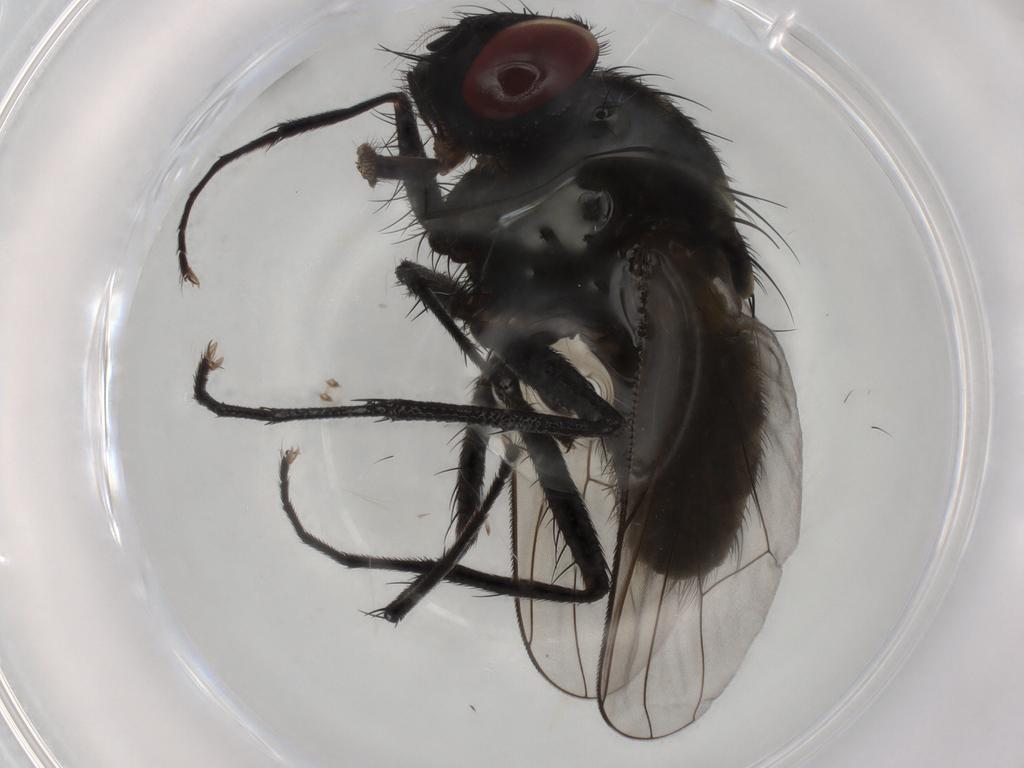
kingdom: Animalia
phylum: Arthropoda
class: Insecta
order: Diptera
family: Muscidae
